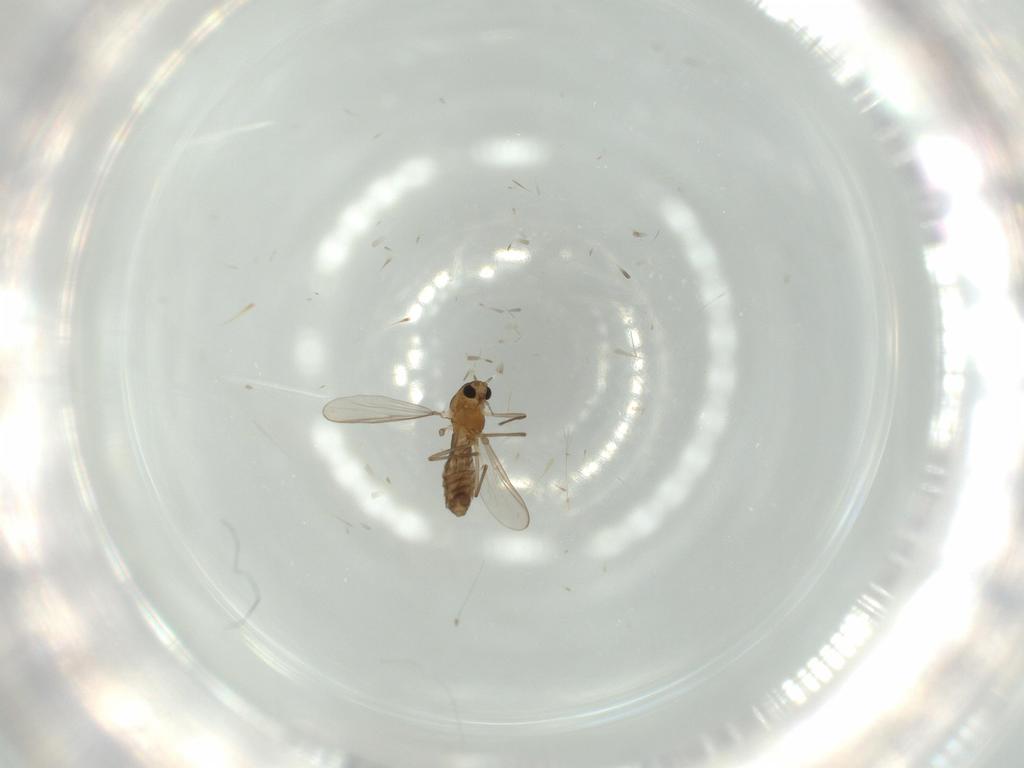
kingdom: Animalia
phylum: Arthropoda
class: Insecta
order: Diptera
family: Chironomidae
